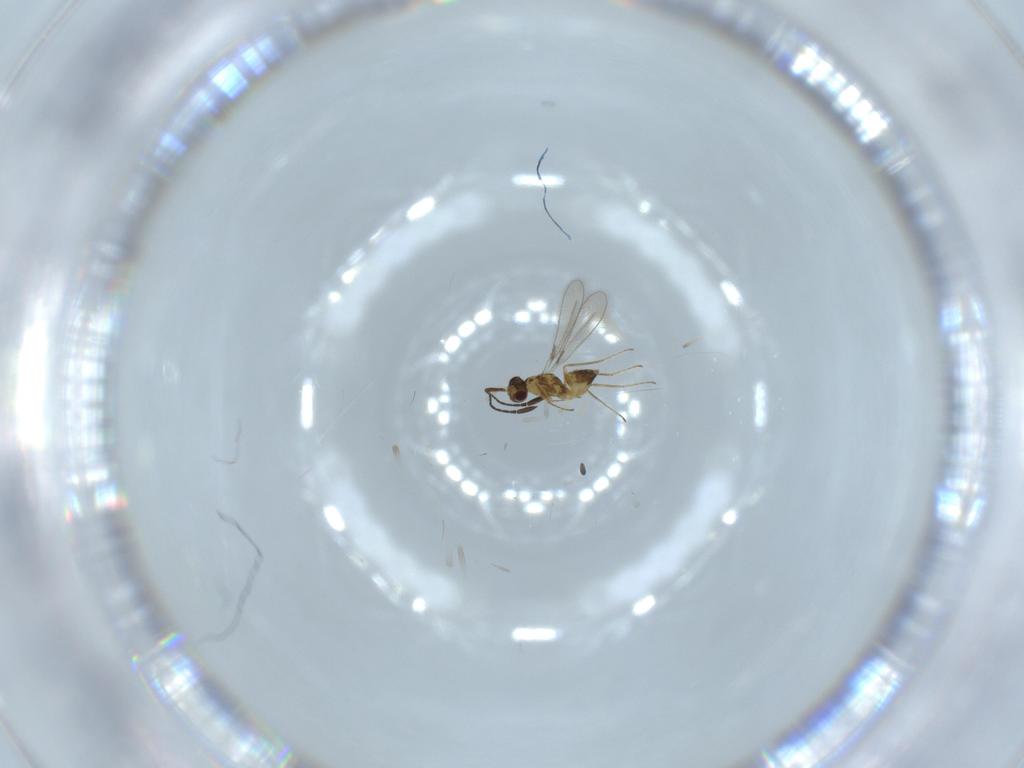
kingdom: Animalia
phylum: Arthropoda
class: Insecta
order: Hymenoptera
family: Mymaridae
